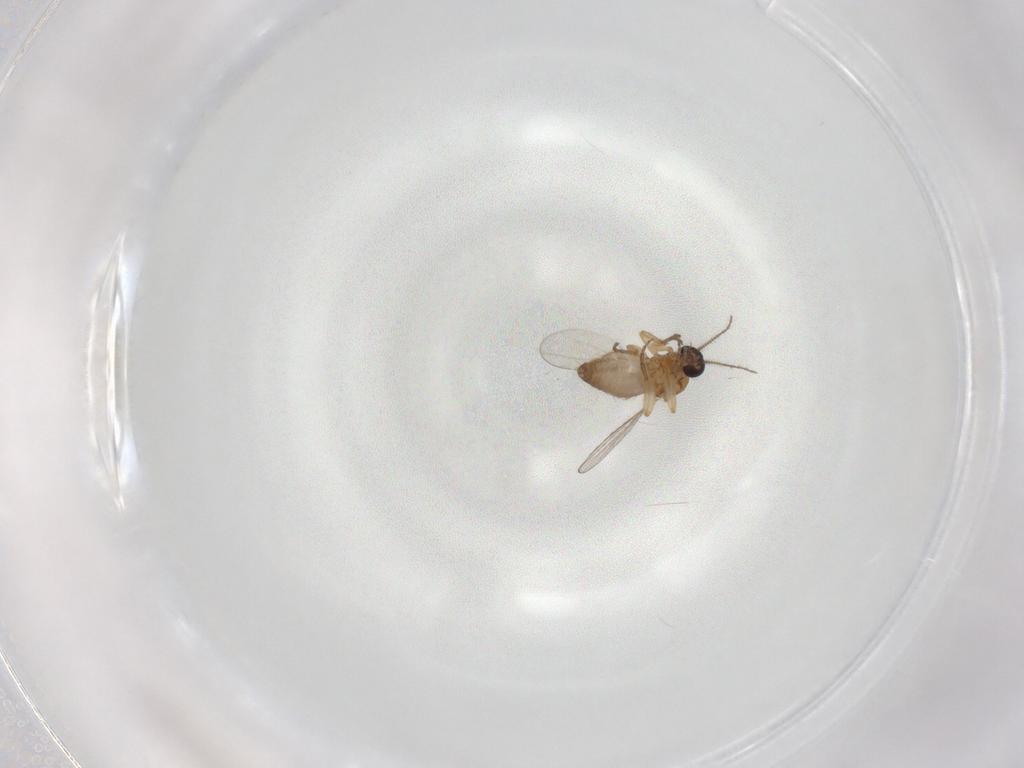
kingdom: Animalia
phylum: Arthropoda
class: Insecta
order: Diptera
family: Ceratopogonidae
